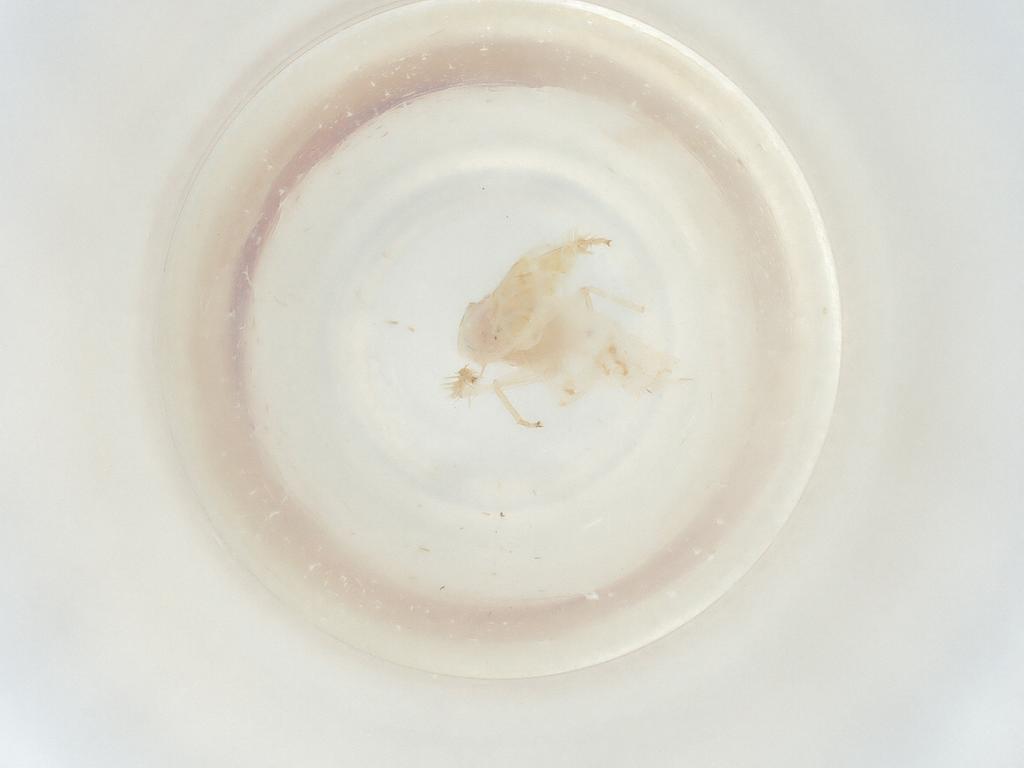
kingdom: Animalia
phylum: Arthropoda
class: Insecta
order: Hemiptera
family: Cicadellidae
